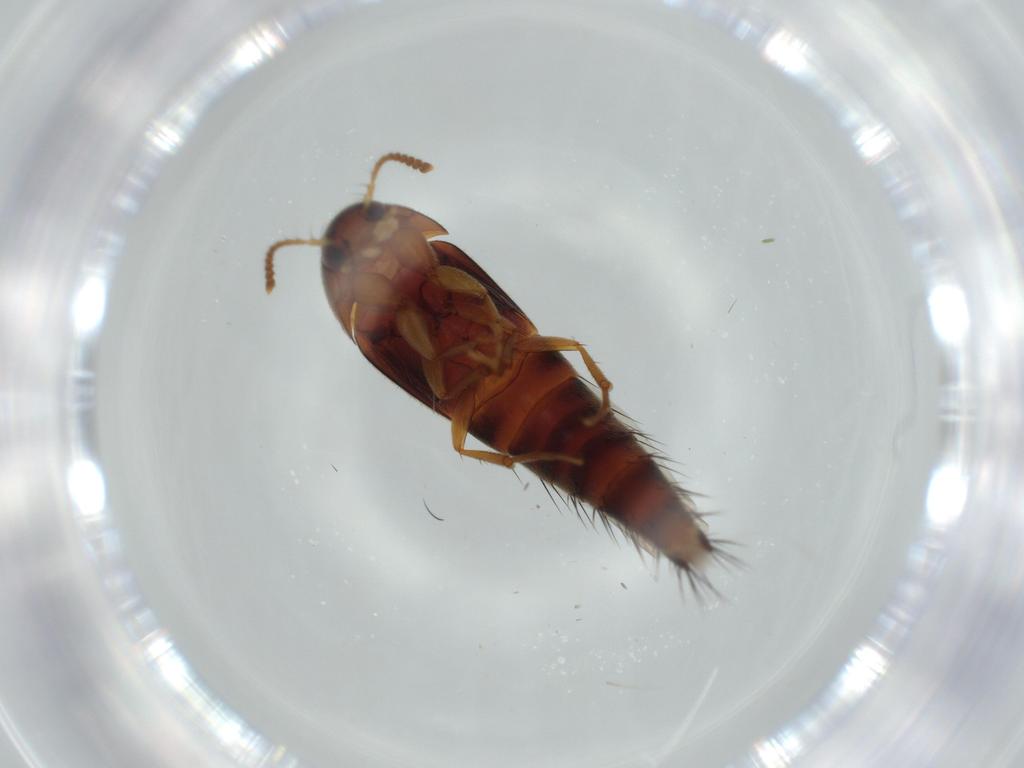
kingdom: Animalia
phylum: Arthropoda
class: Insecta
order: Coleoptera
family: Staphylinidae
